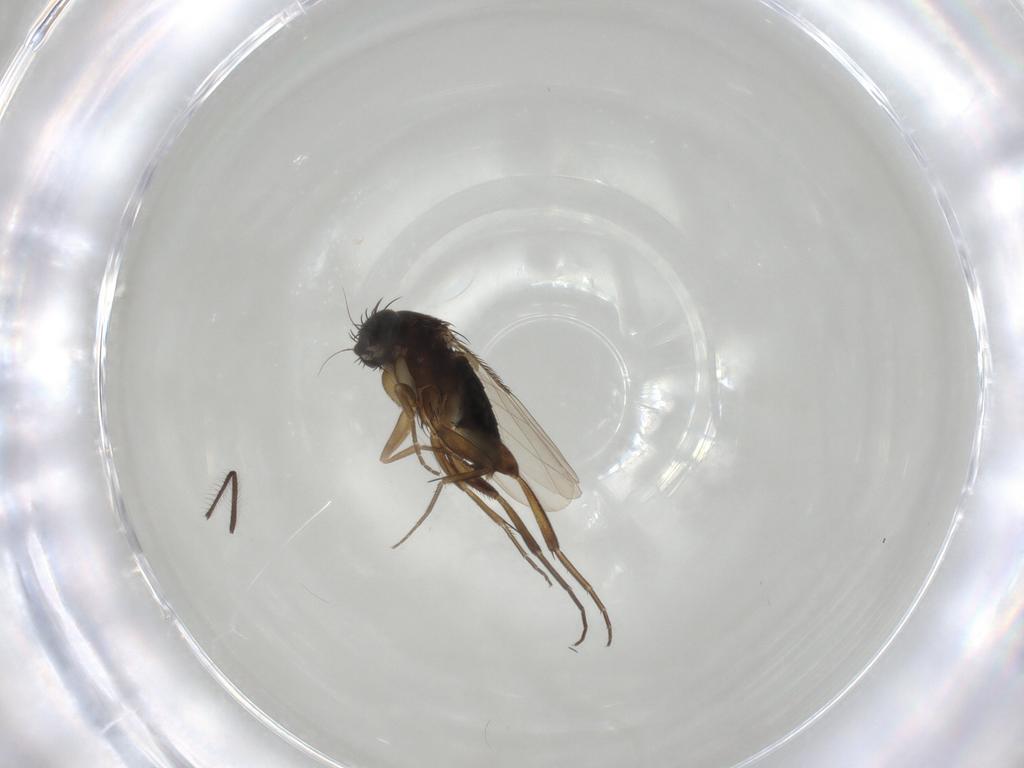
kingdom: Animalia
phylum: Arthropoda
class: Insecta
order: Diptera
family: Chironomidae
